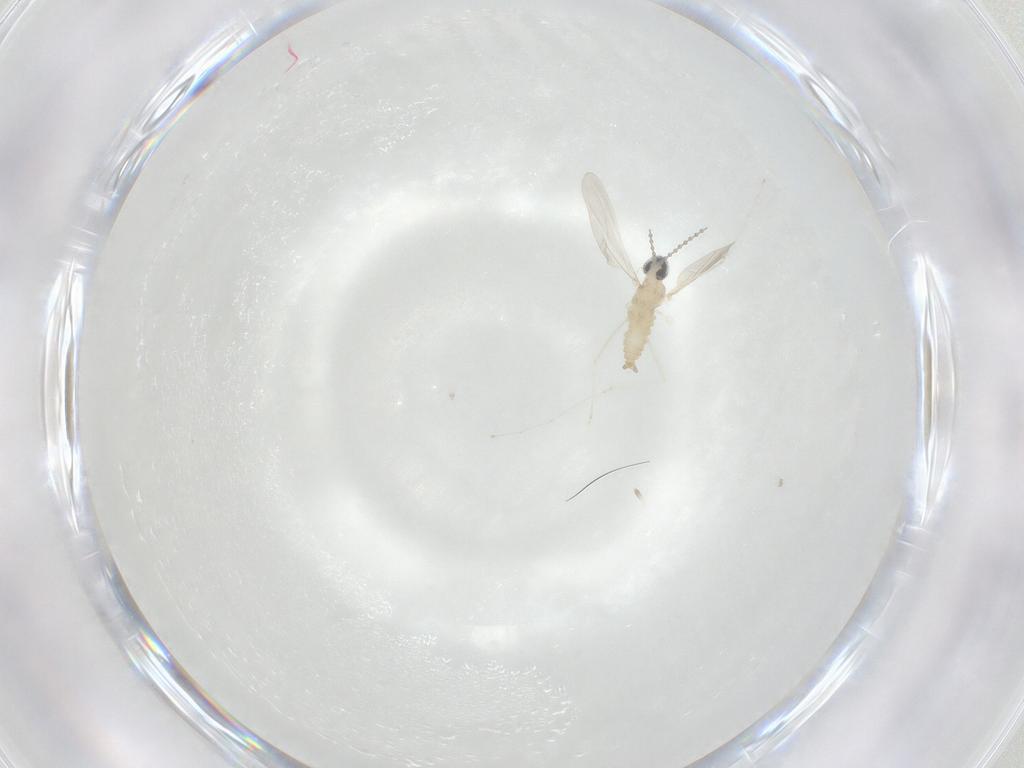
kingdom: Animalia
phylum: Arthropoda
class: Insecta
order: Diptera
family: Cecidomyiidae
